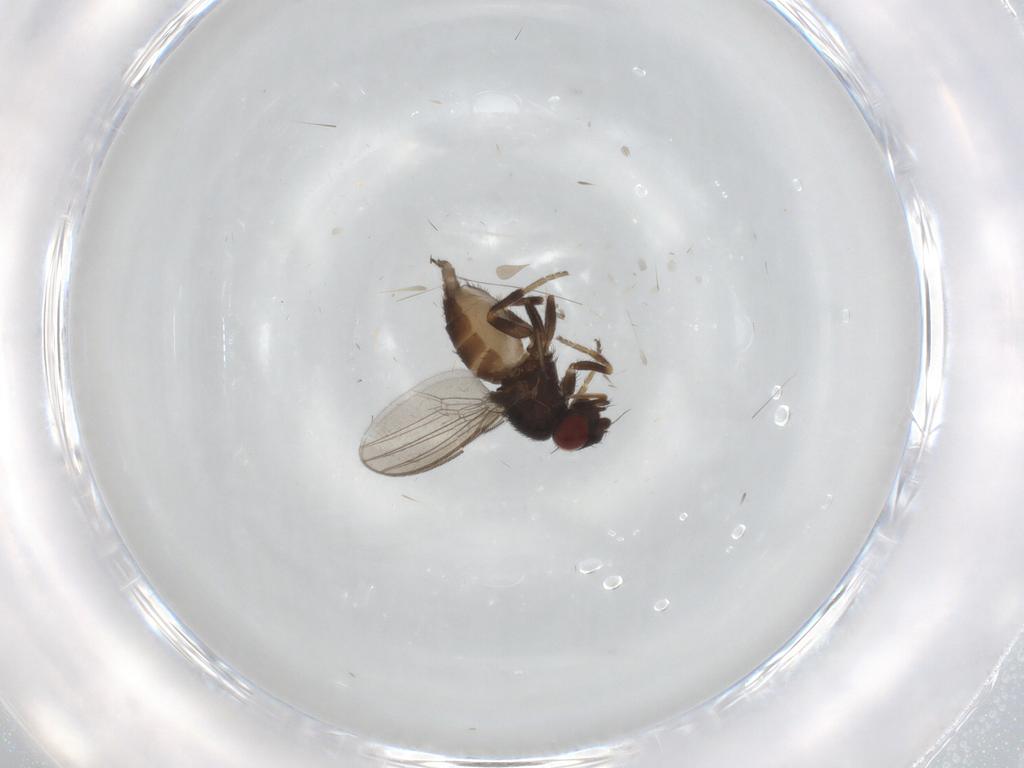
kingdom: Animalia
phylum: Arthropoda
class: Insecta
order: Diptera
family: Milichiidae
